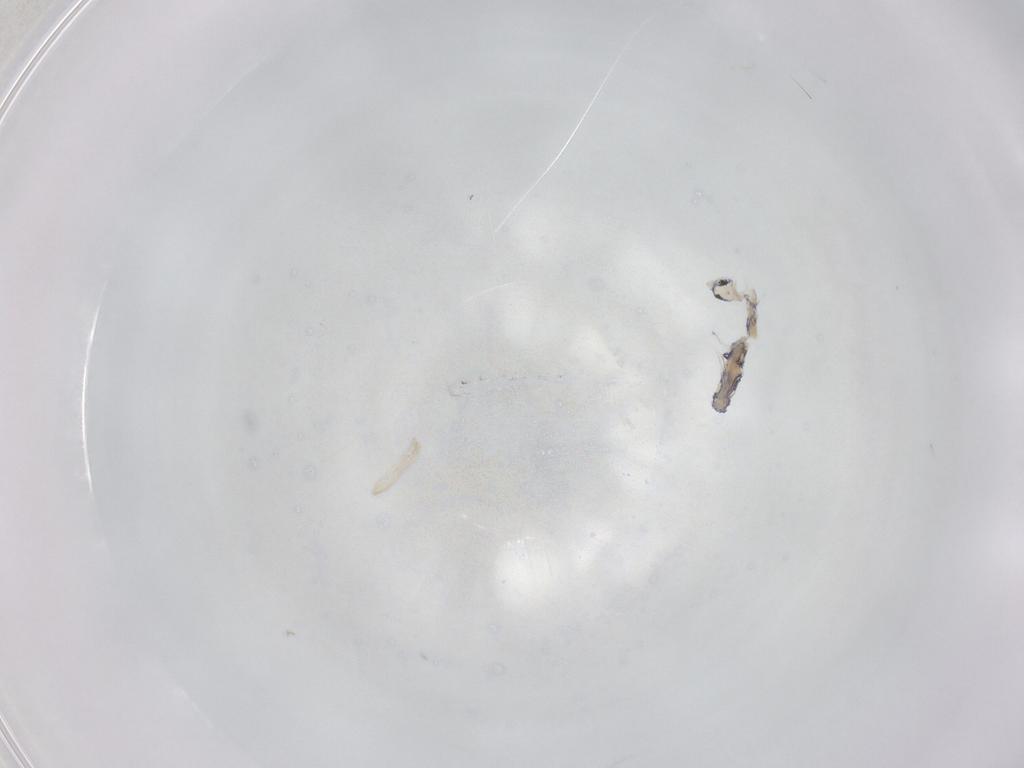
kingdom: Animalia
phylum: Arthropoda
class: Collembola
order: Entomobryomorpha
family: Entomobryidae
